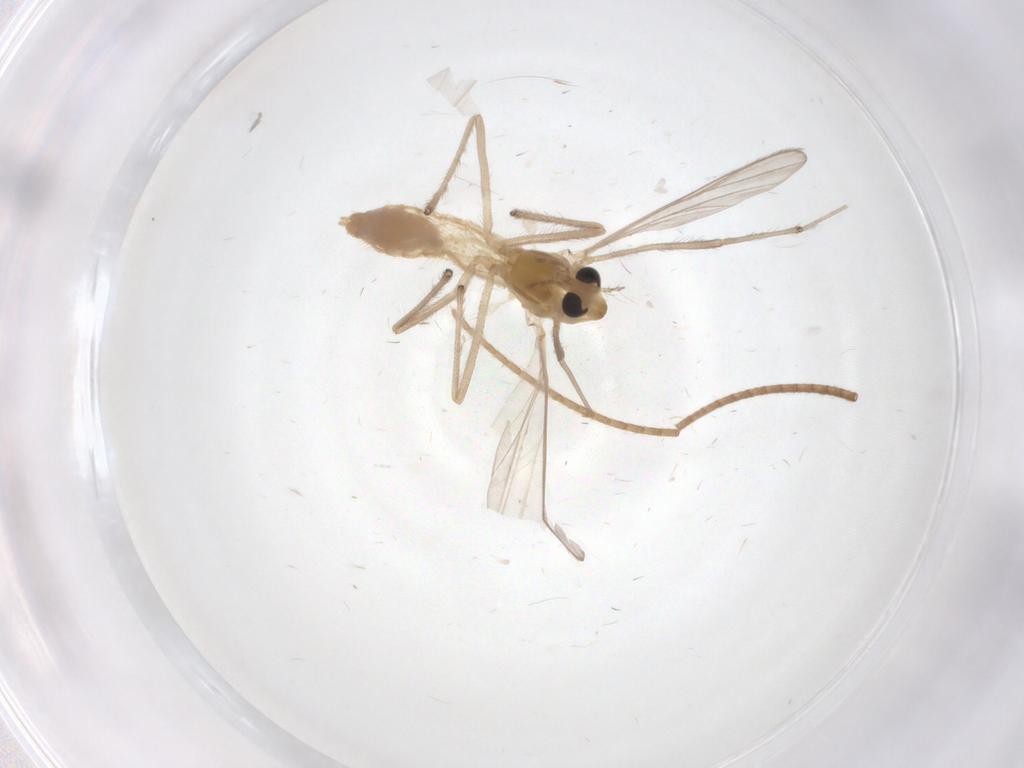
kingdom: Animalia
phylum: Arthropoda
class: Insecta
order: Diptera
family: Chironomidae
